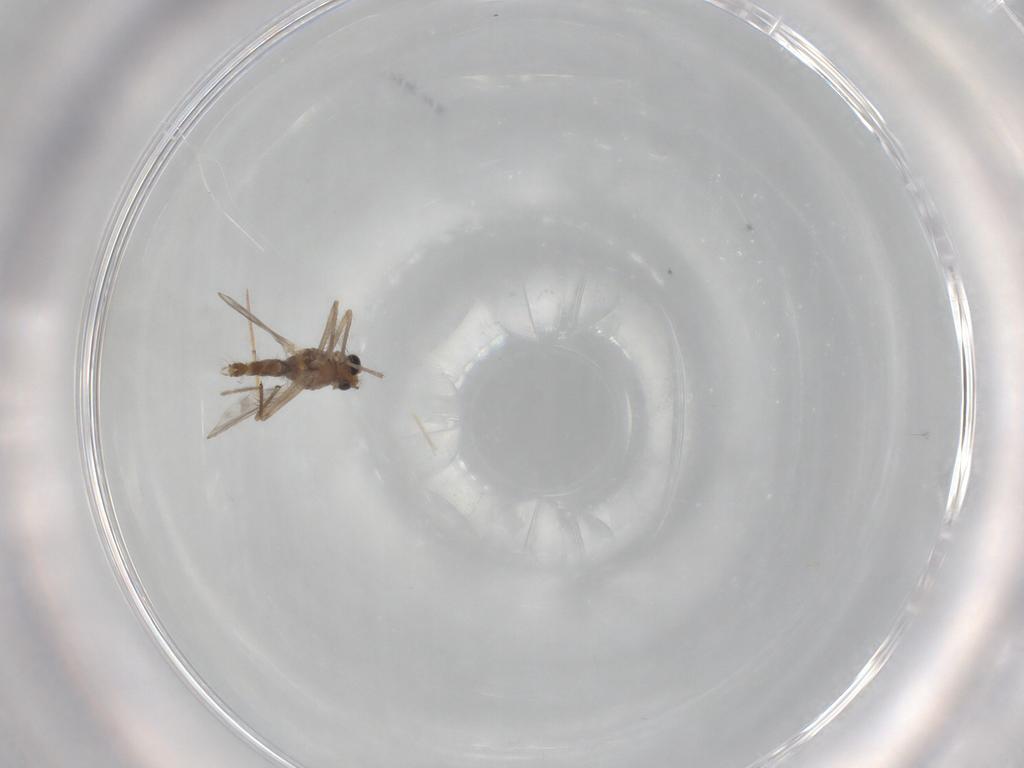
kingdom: Animalia
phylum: Arthropoda
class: Insecta
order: Diptera
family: Chironomidae
